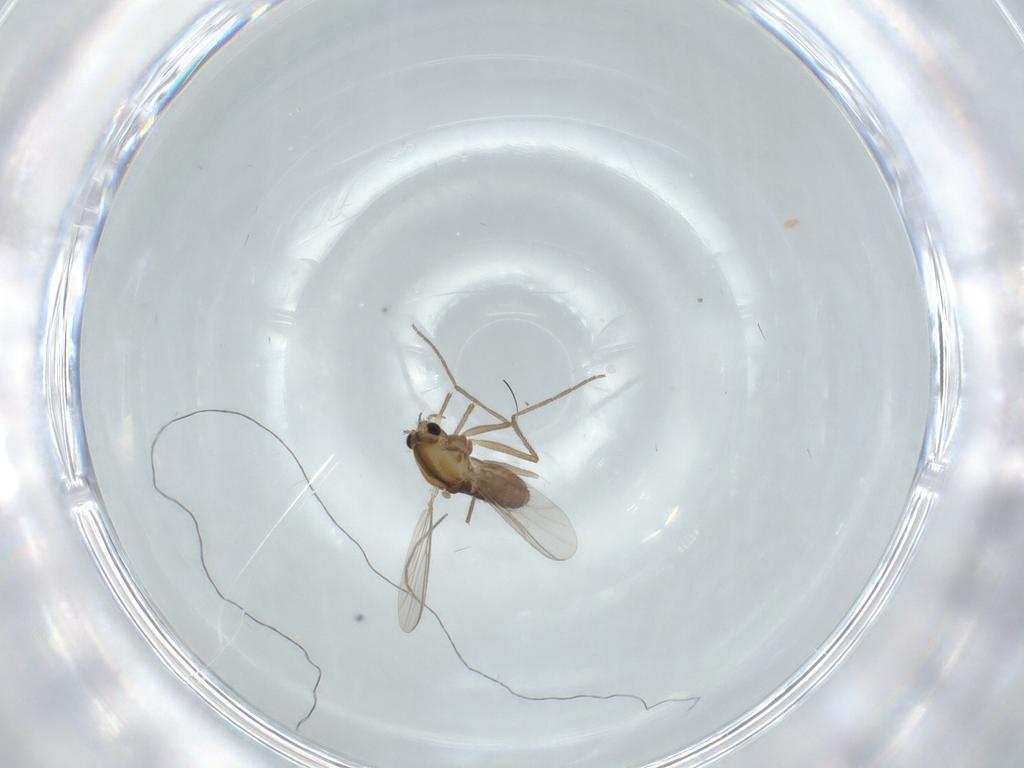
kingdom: Animalia
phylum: Arthropoda
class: Insecta
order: Diptera
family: Chironomidae
